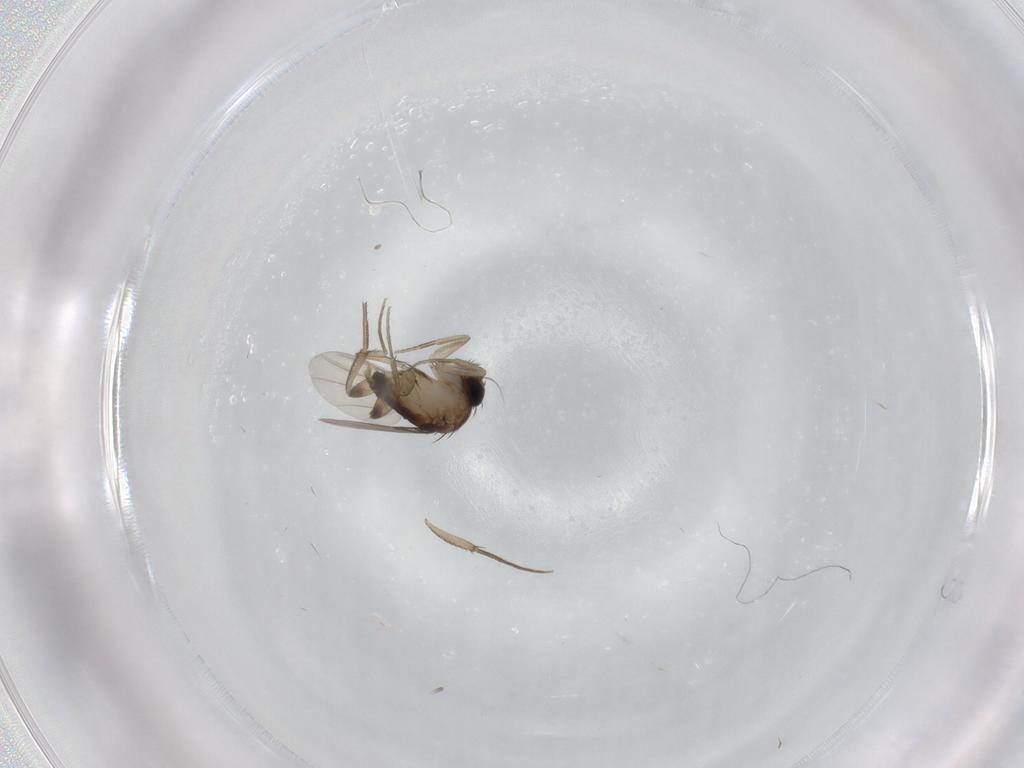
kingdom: Animalia
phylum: Arthropoda
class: Insecta
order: Diptera
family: Phoridae
